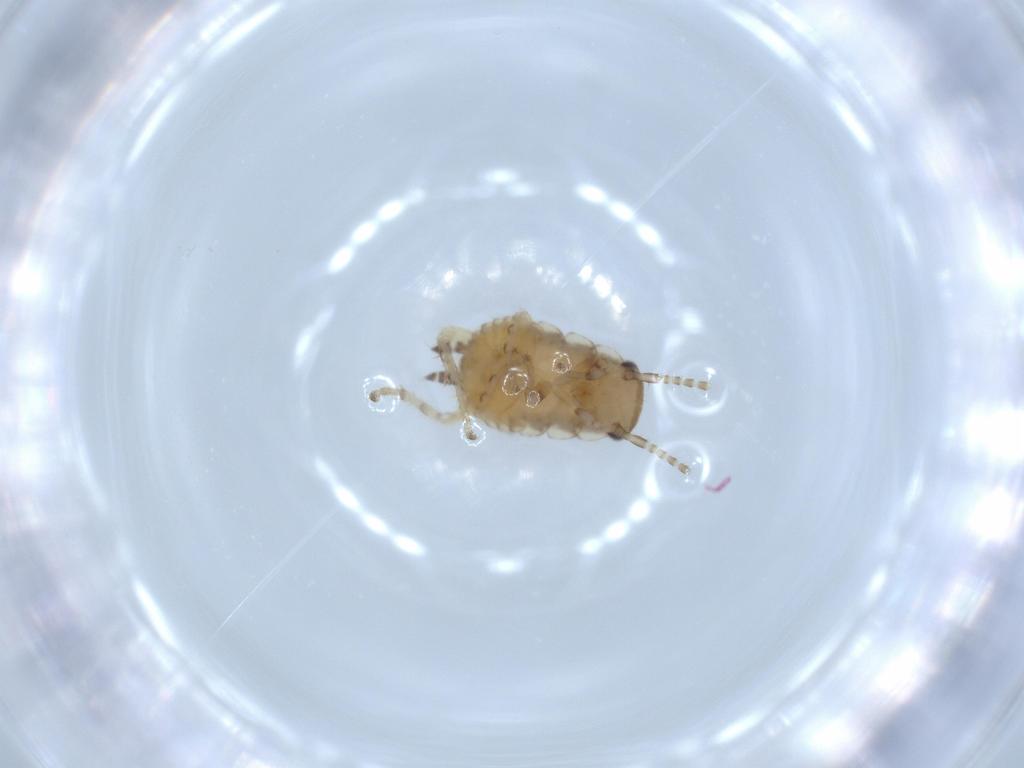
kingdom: Animalia
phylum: Arthropoda
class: Insecta
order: Blattodea
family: Ectobiidae
